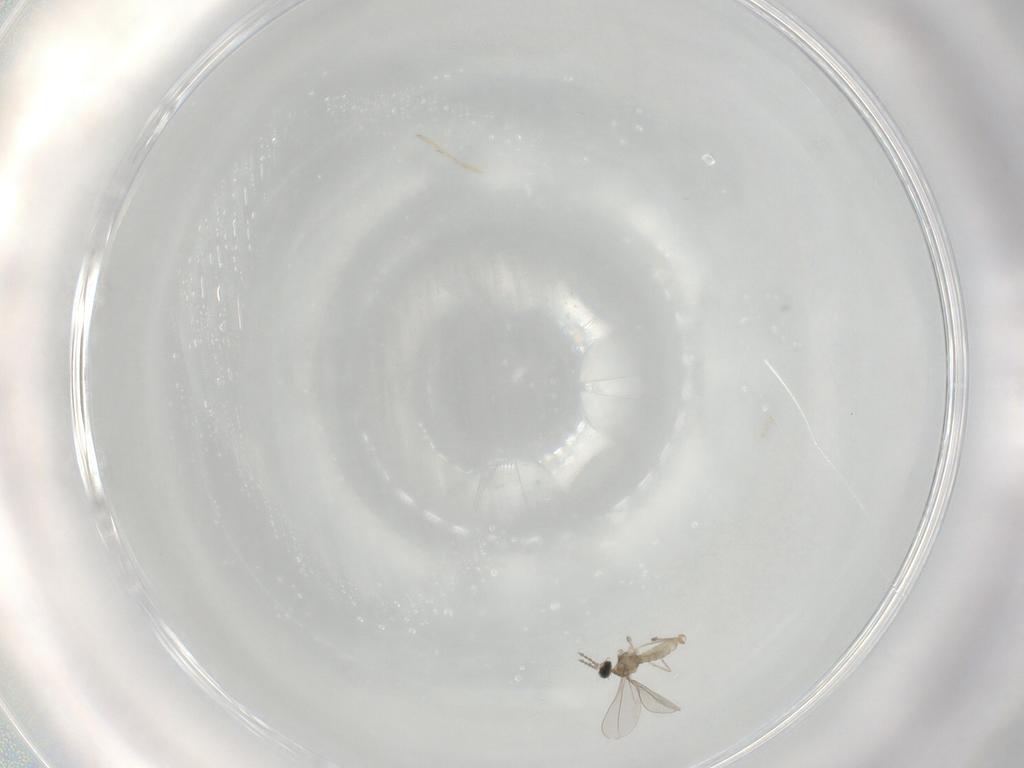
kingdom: Animalia
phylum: Arthropoda
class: Insecta
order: Diptera
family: Cecidomyiidae
